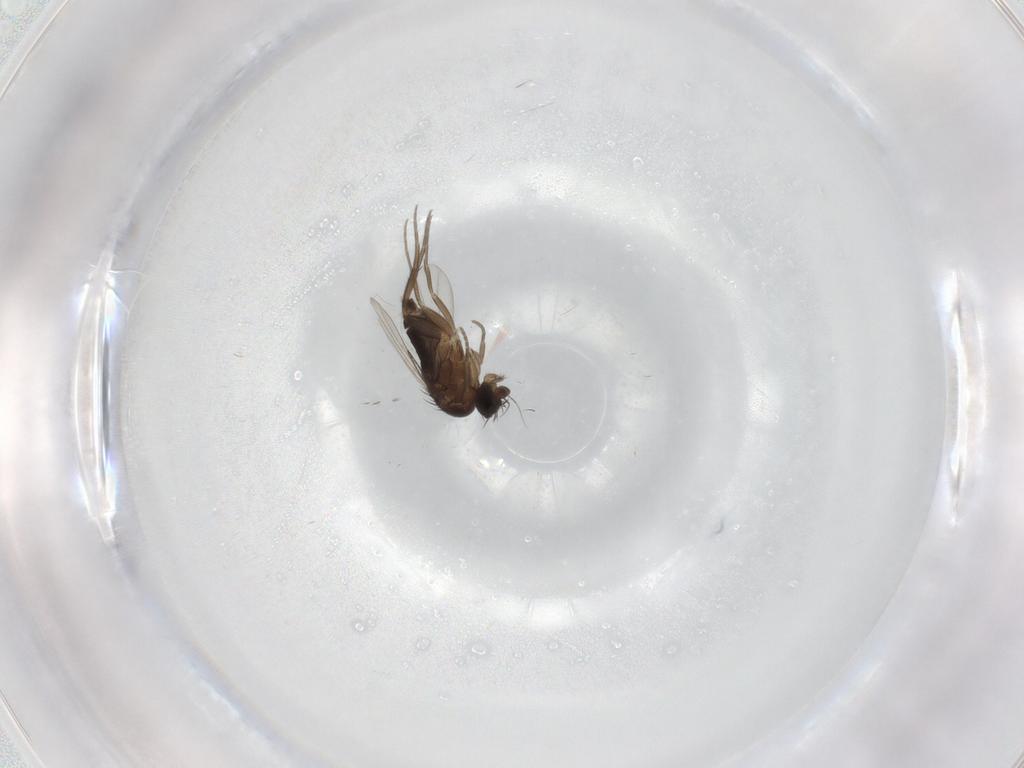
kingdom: Animalia
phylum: Arthropoda
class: Insecta
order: Diptera
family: Phoridae
